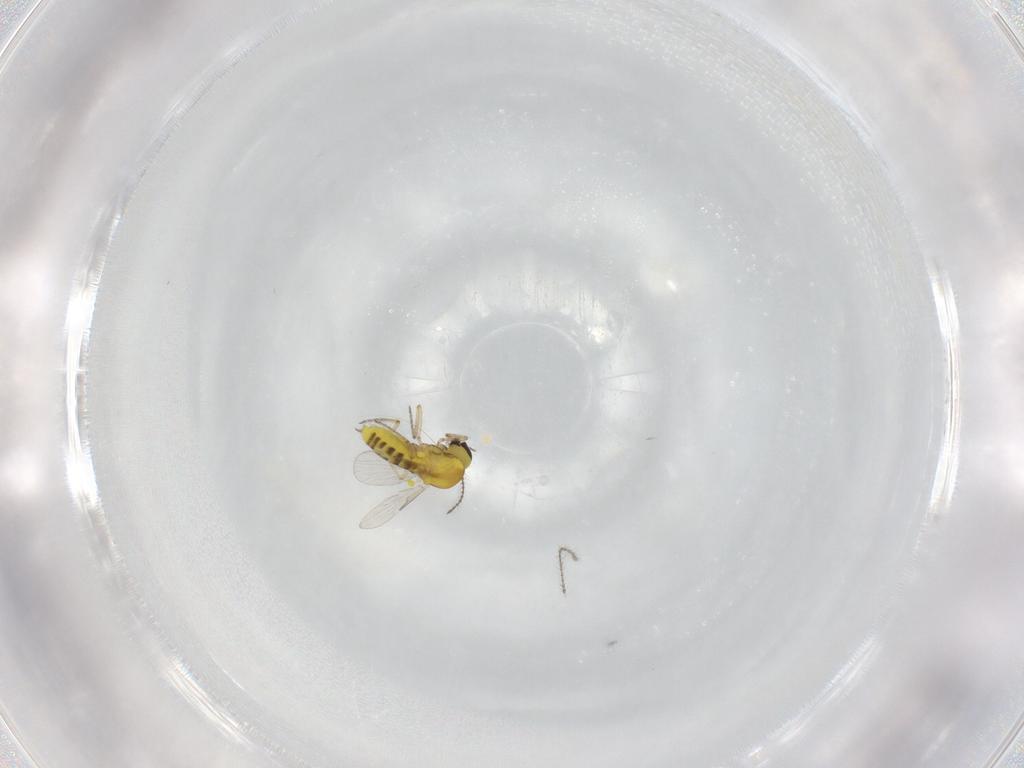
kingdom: Animalia
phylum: Arthropoda
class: Insecta
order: Diptera
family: Ceratopogonidae
